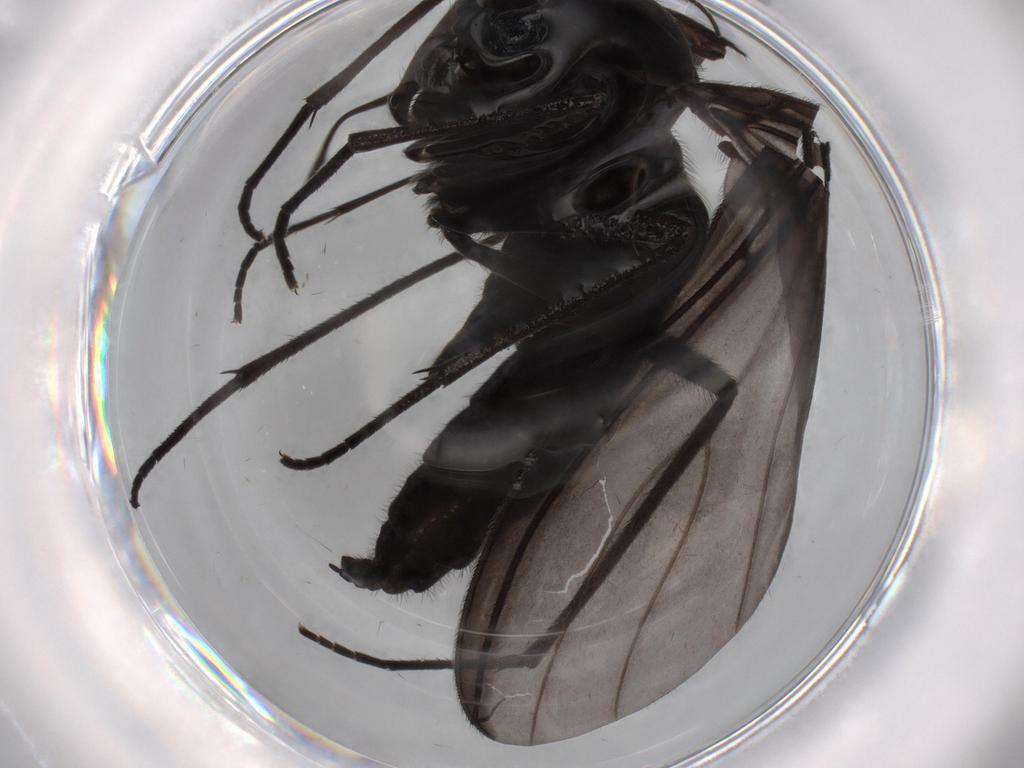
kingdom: Animalia
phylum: Arthropoda
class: Insecta
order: Diptera
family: Sciaridae
